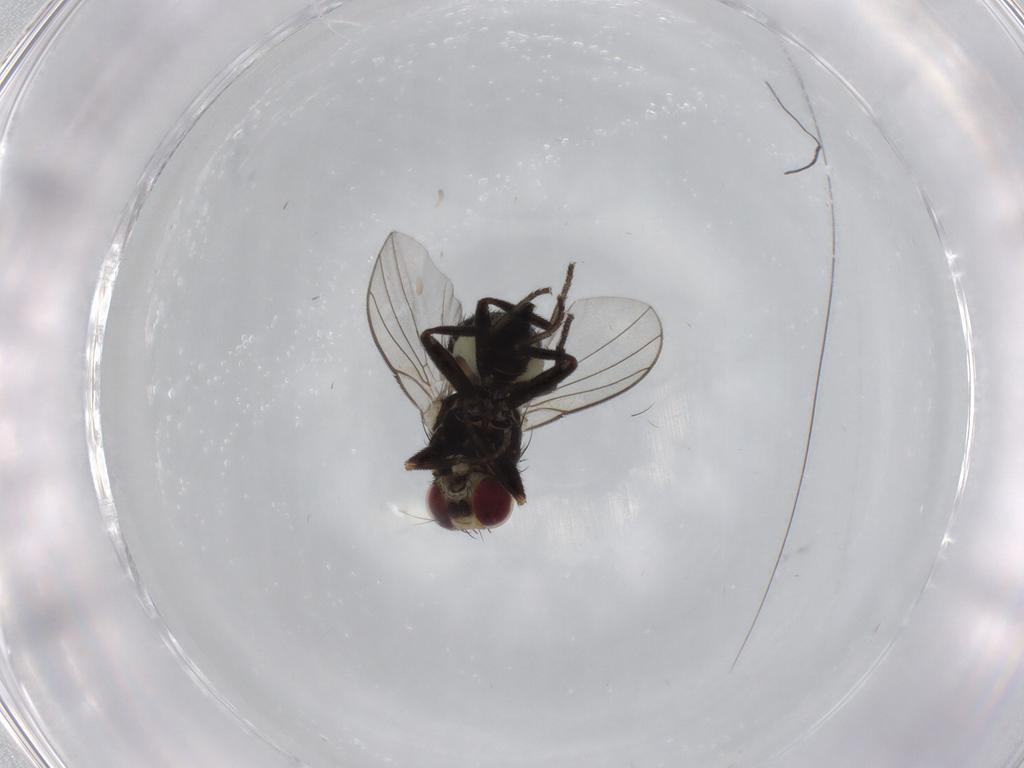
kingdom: Animalia
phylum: Arthropoda
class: Insecta
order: Diptera
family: Agromyzidae
